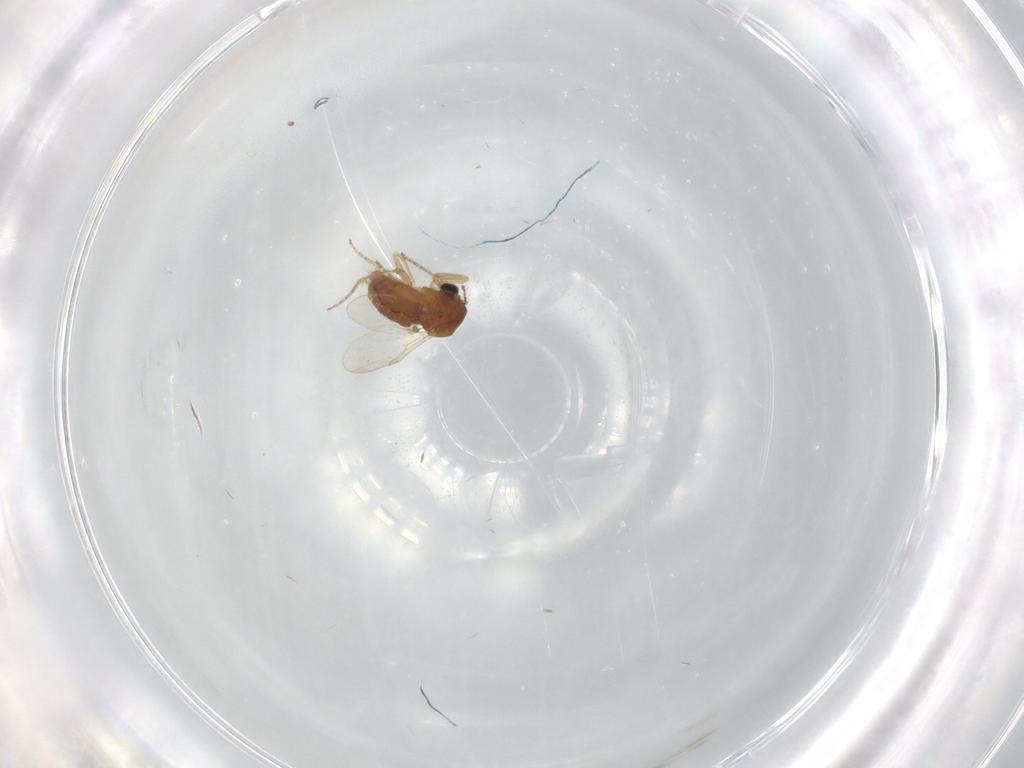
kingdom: Animalia
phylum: Arthropoda
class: Insecta
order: Diptera
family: Ceratopogonidae
